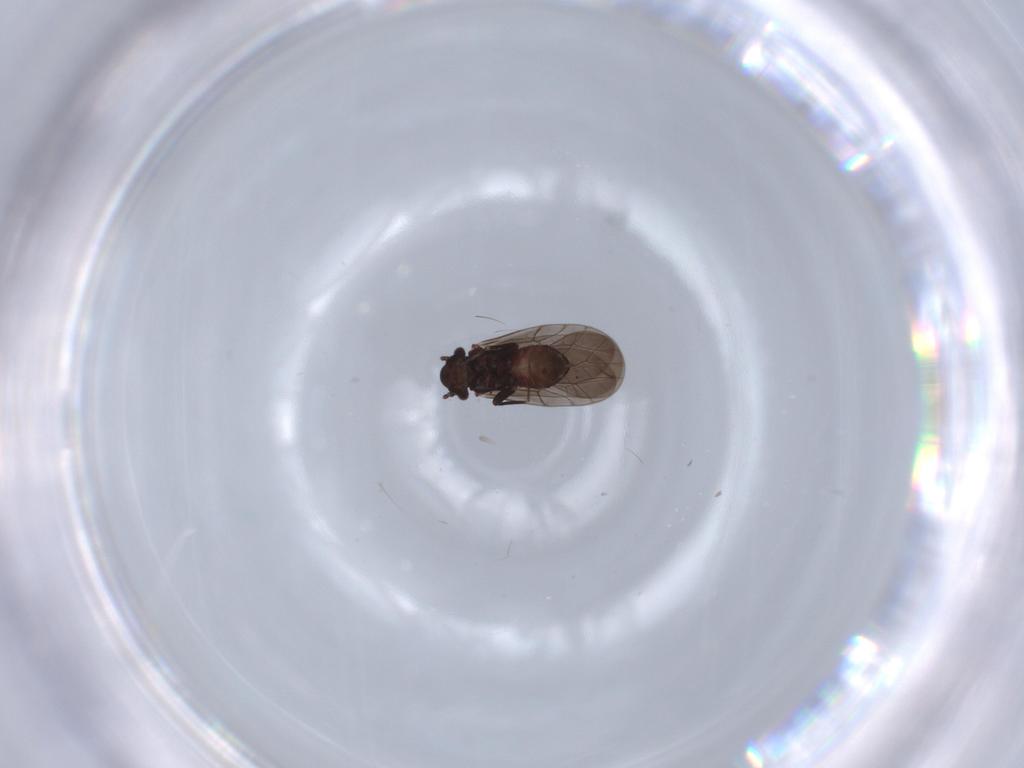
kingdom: Animalia
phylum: Arthropoda
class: Insecta
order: Psocodea
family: Lepidopsocidae
